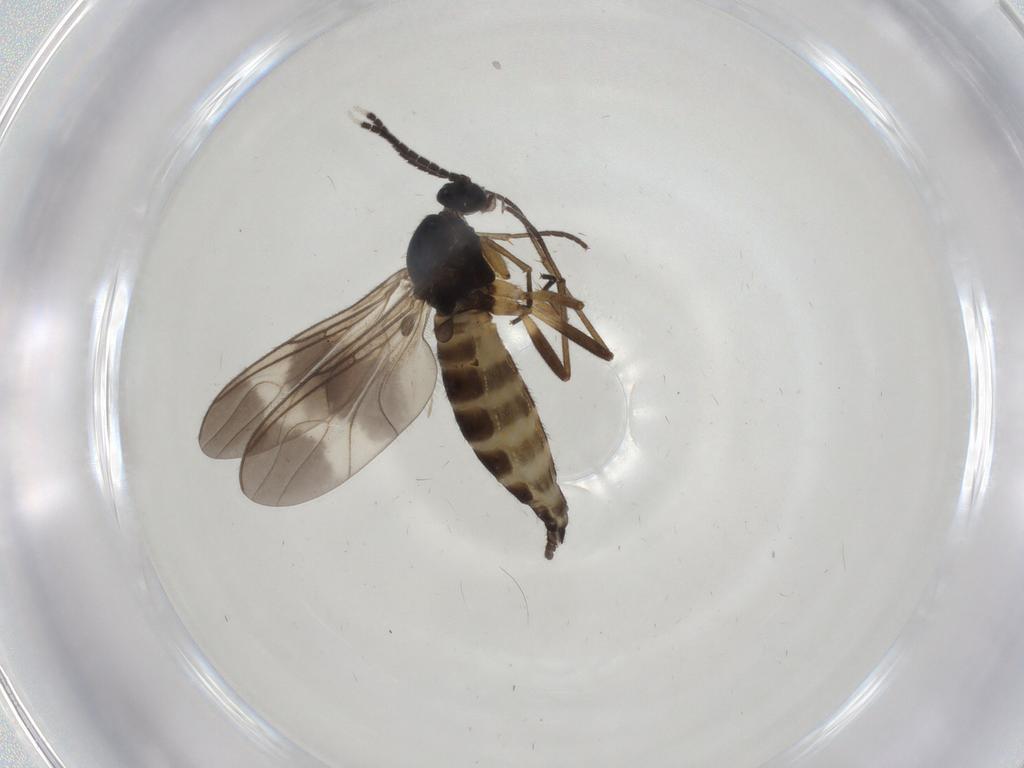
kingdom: Animalia
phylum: Arthropoda
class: Insecta
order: Diptera
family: Sciaridae
